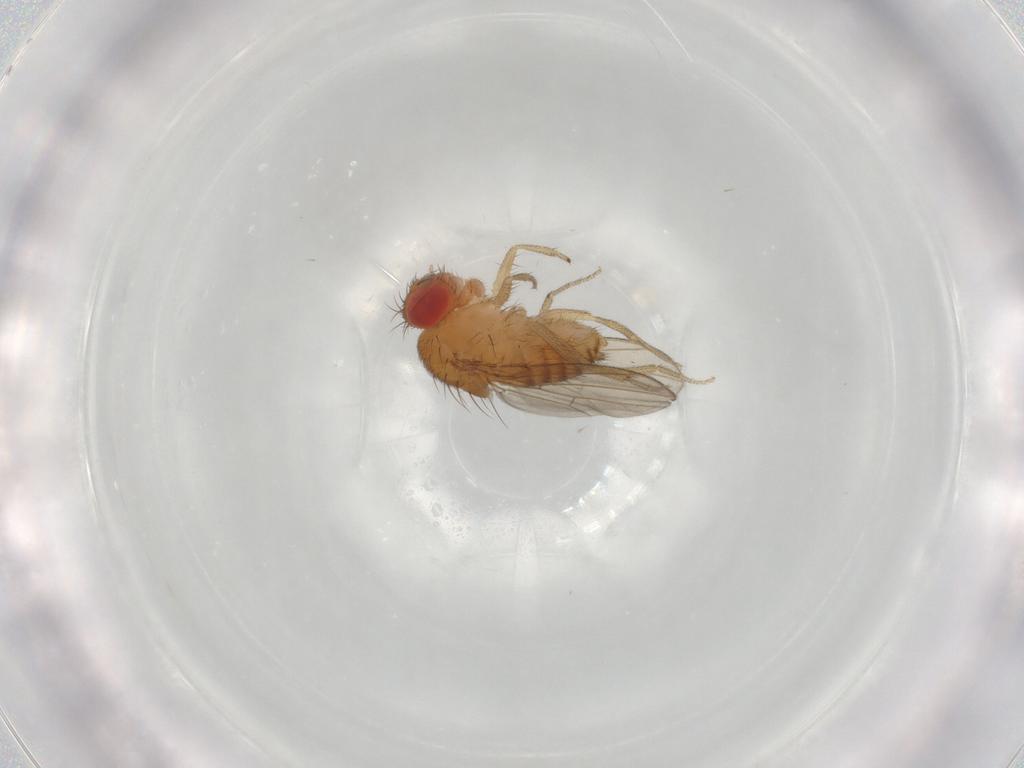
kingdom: Animalia
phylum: Arthropoda
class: Insecta
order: Diptera
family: Drosophilidae
